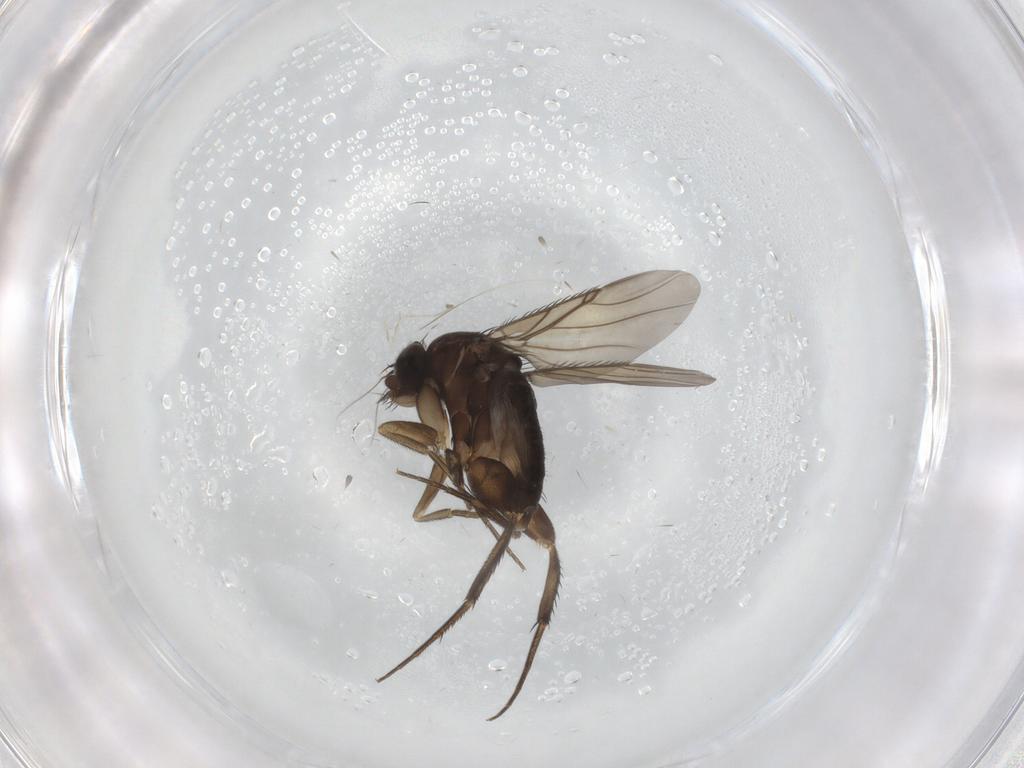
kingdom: Animalia
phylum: Arthropoda
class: Insecta
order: Diptera
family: Phoridae
